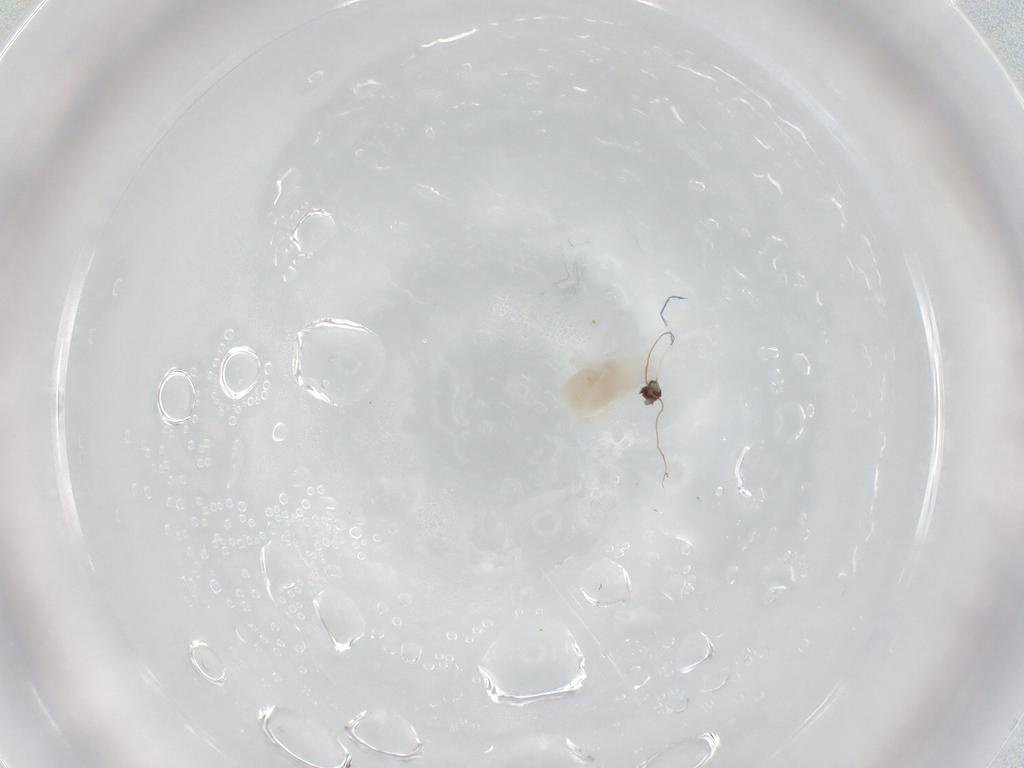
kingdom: Animalia
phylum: Arthropoda
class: Arachnida
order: Trombidiformes
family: Rhagidiidae
